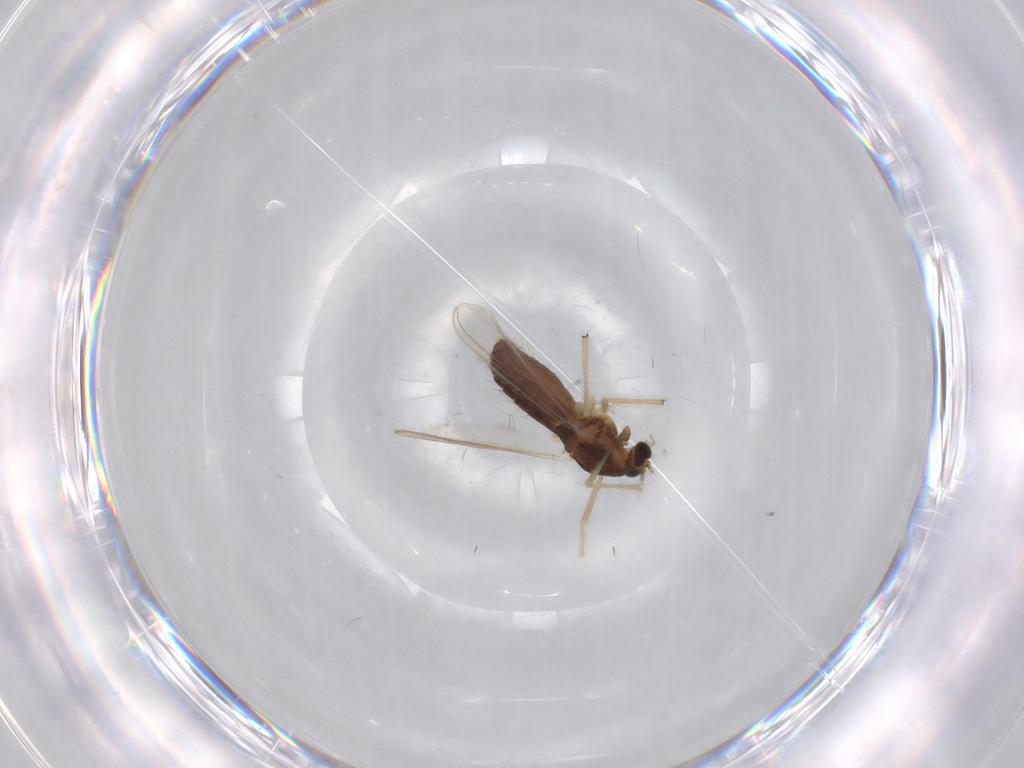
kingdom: Animalia
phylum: Arthropoda
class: Insecta
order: Diptera
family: Chironomidae
